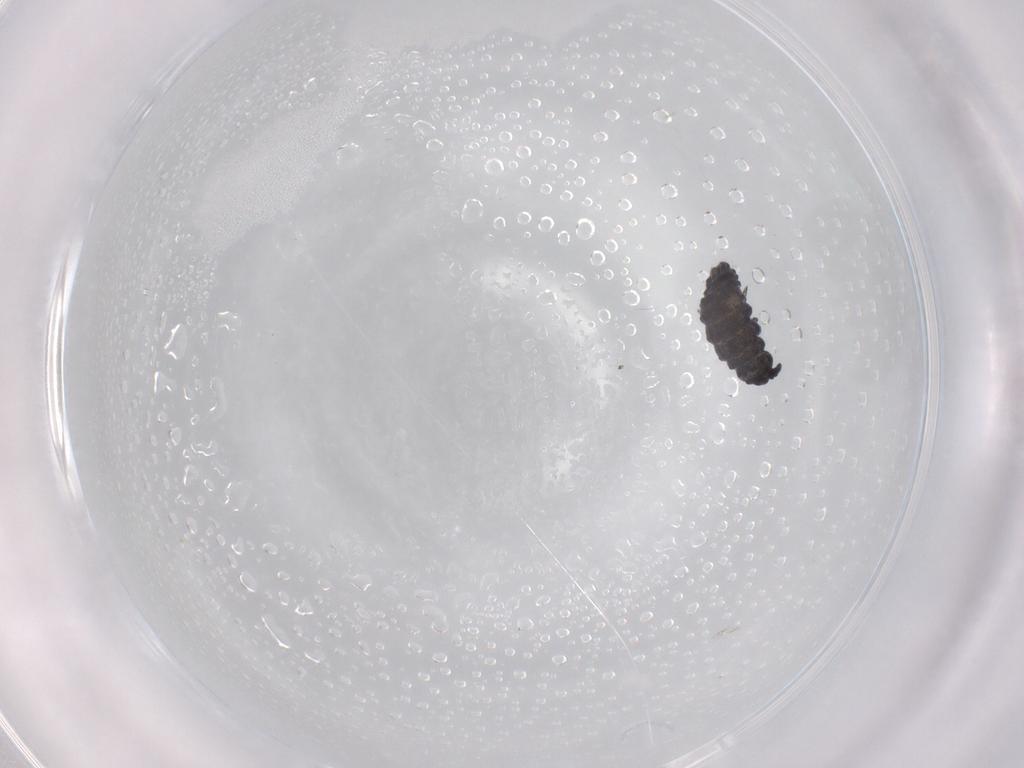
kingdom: Animalia
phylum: Arthropoda
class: Collembola
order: Poduromorpha
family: Neanuridae
